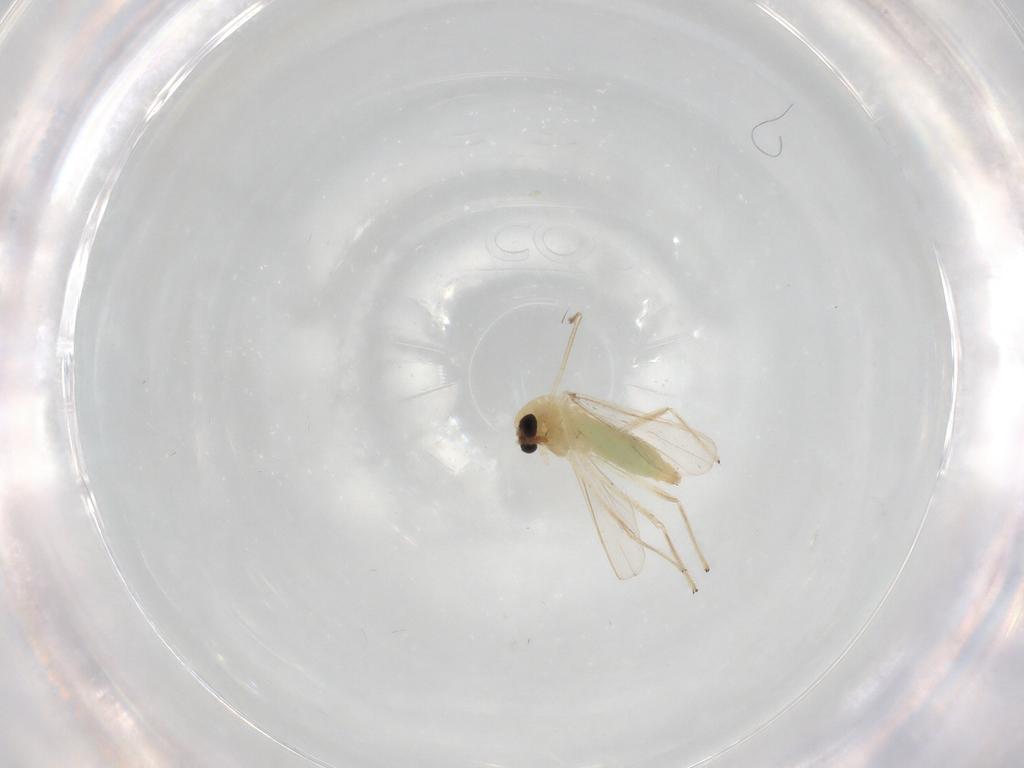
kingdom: Animalia
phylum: Arthropoda
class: Insecta
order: Diptera
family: Chironomidae
